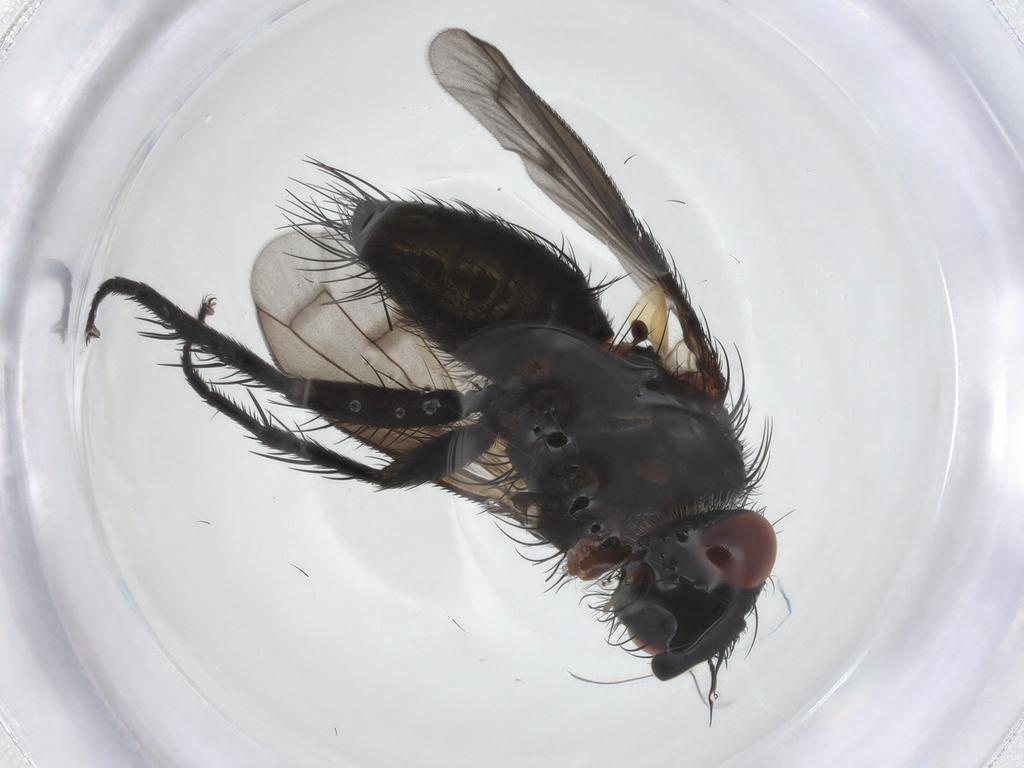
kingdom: Animalia
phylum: Arthropoda
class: Insecta
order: Diptera
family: Tachinidae
